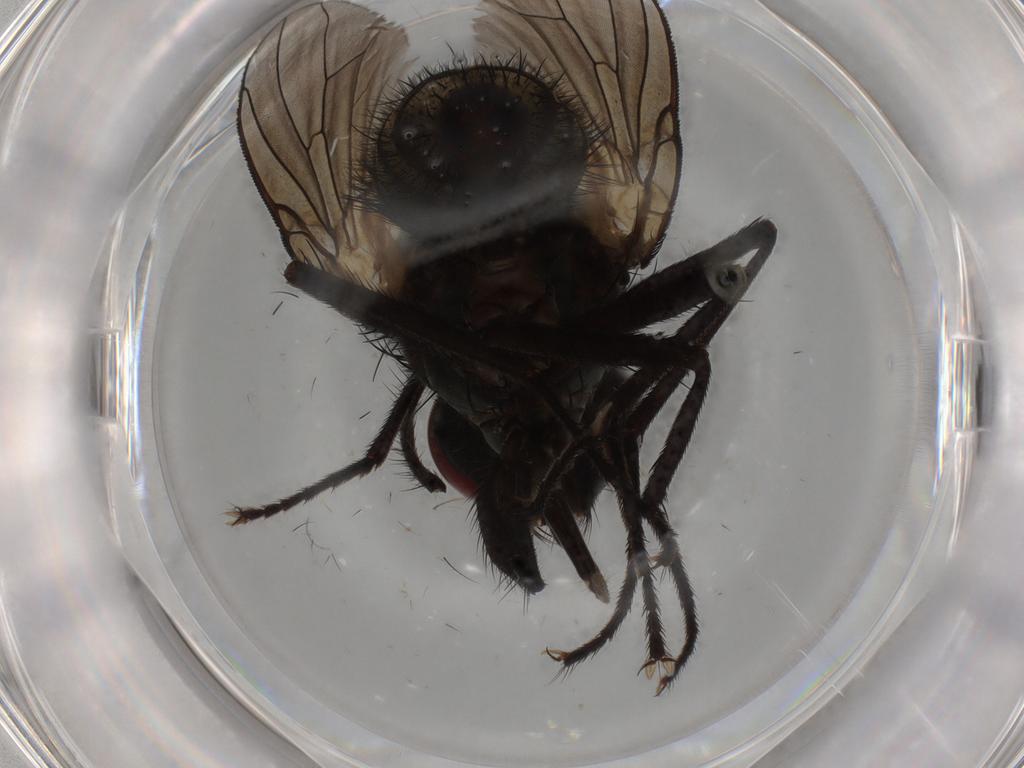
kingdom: Animalia
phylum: Arthropoda
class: Insecta
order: Diptera
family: Muscidae
